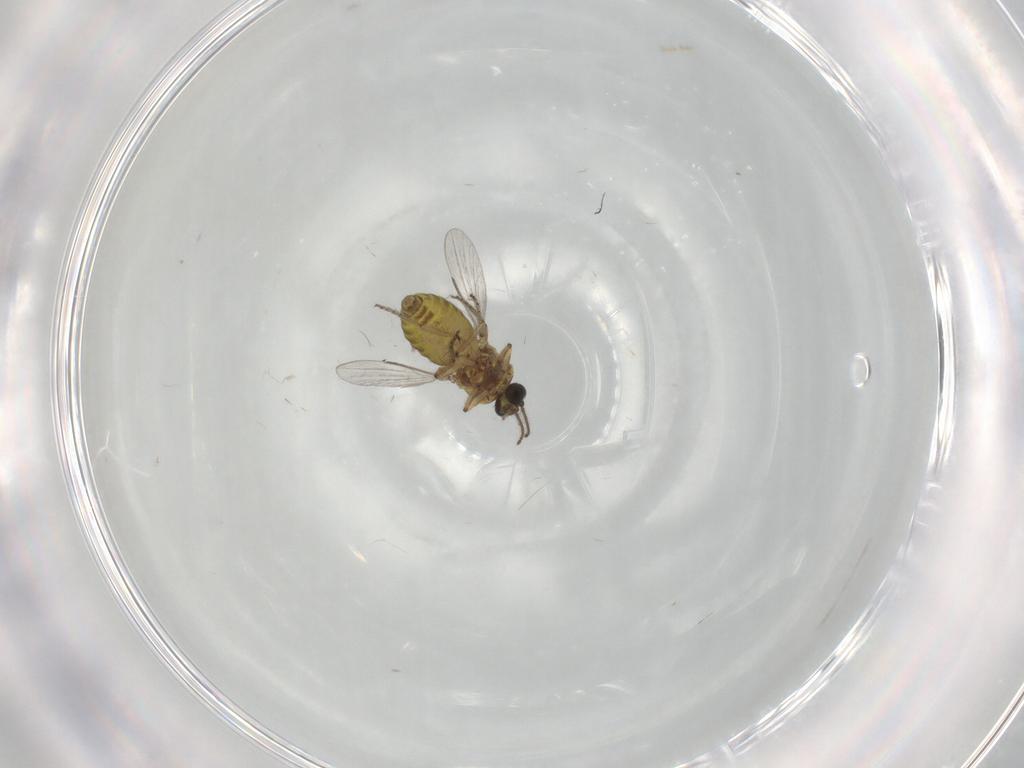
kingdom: Animalia
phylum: Arthropoda
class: Insecta
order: Diptera
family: Ceratopogonidae
